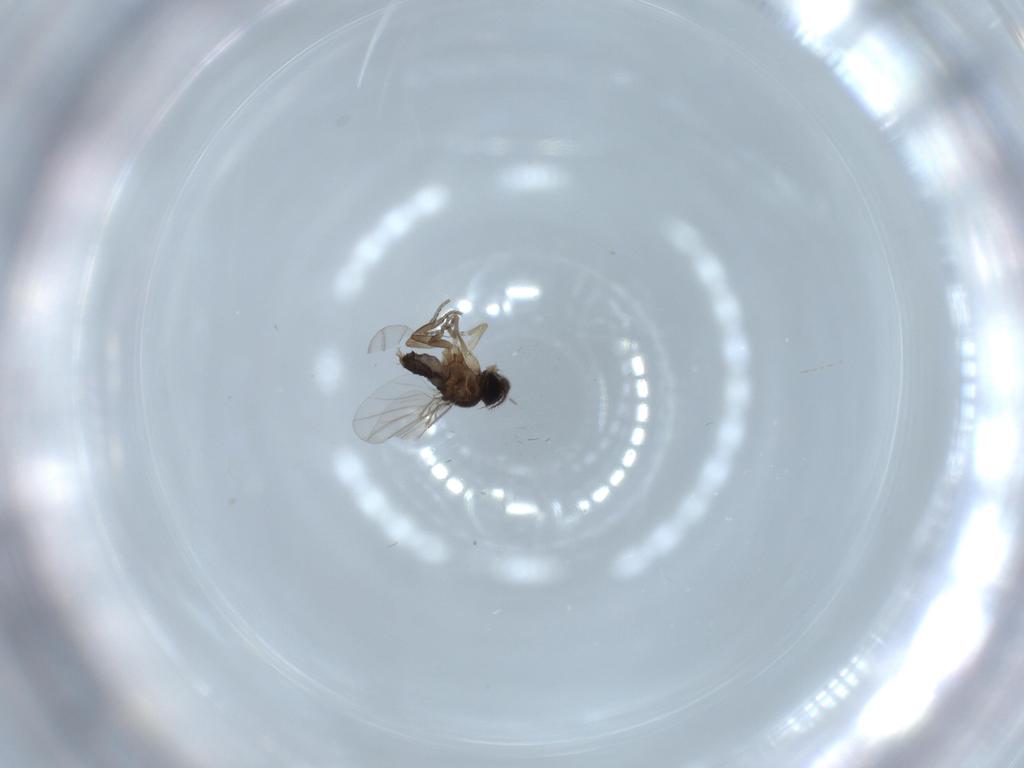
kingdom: Animalia
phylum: Arthropoda
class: Insecta
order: Diptera
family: Phoridae
